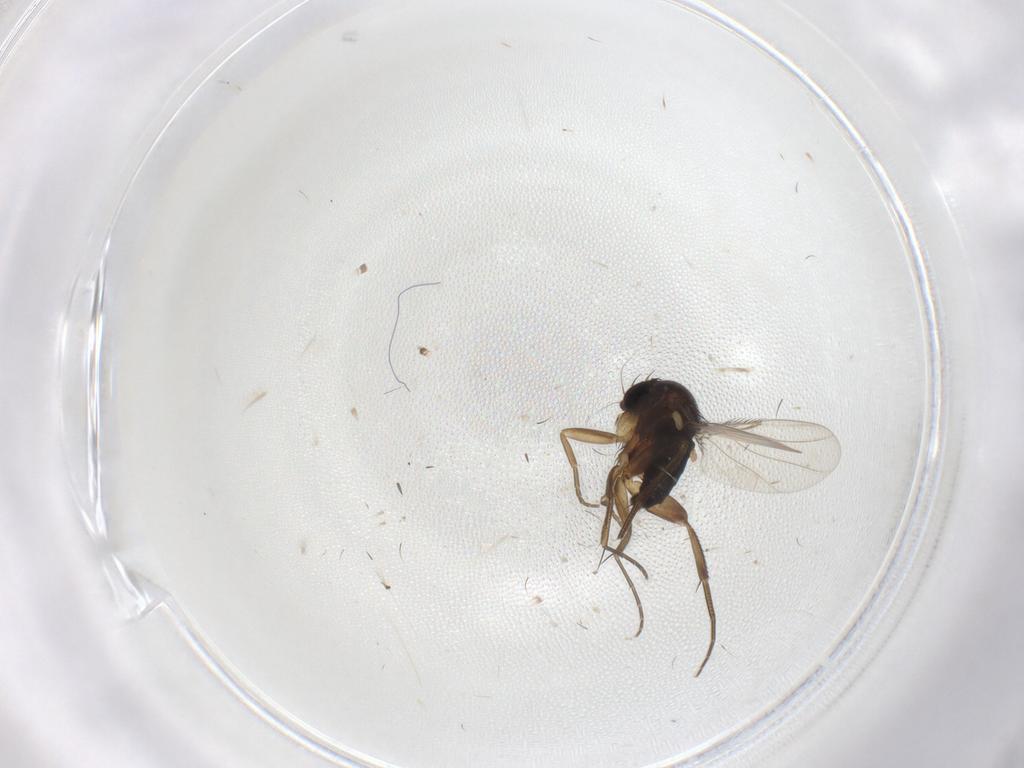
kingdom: Animalia
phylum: Arthropoda
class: Insecta
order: Diptera
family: Phoridae
